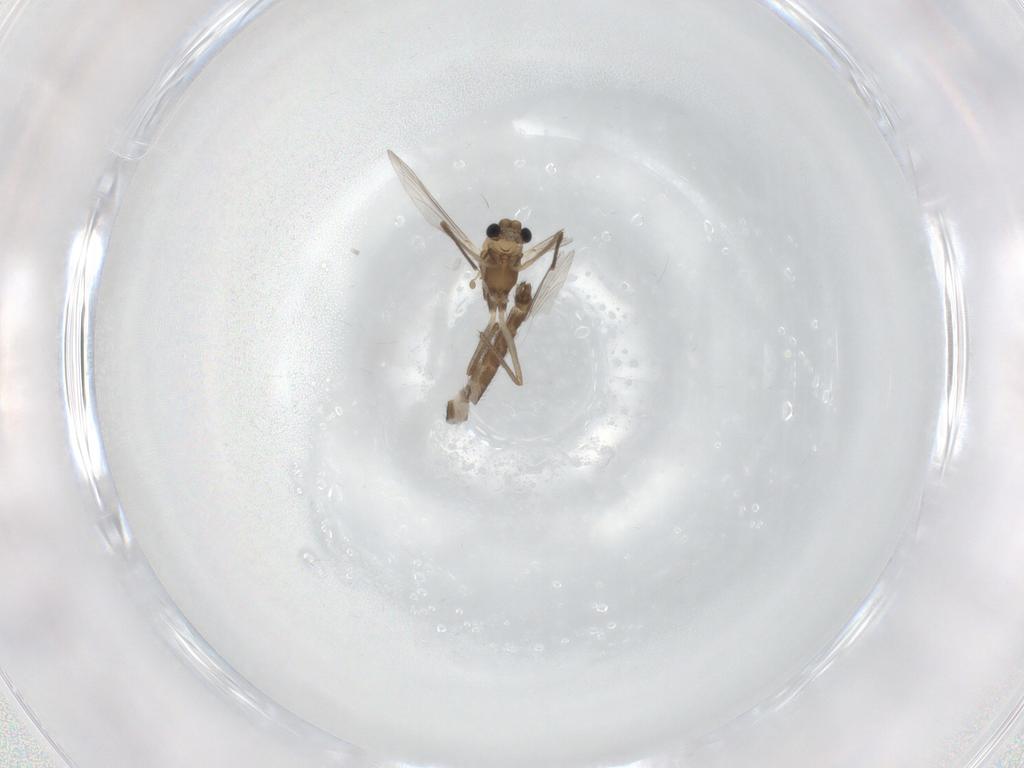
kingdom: Animalia
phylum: Arthropoda
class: Insecta
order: Diptera
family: Chironomidae
